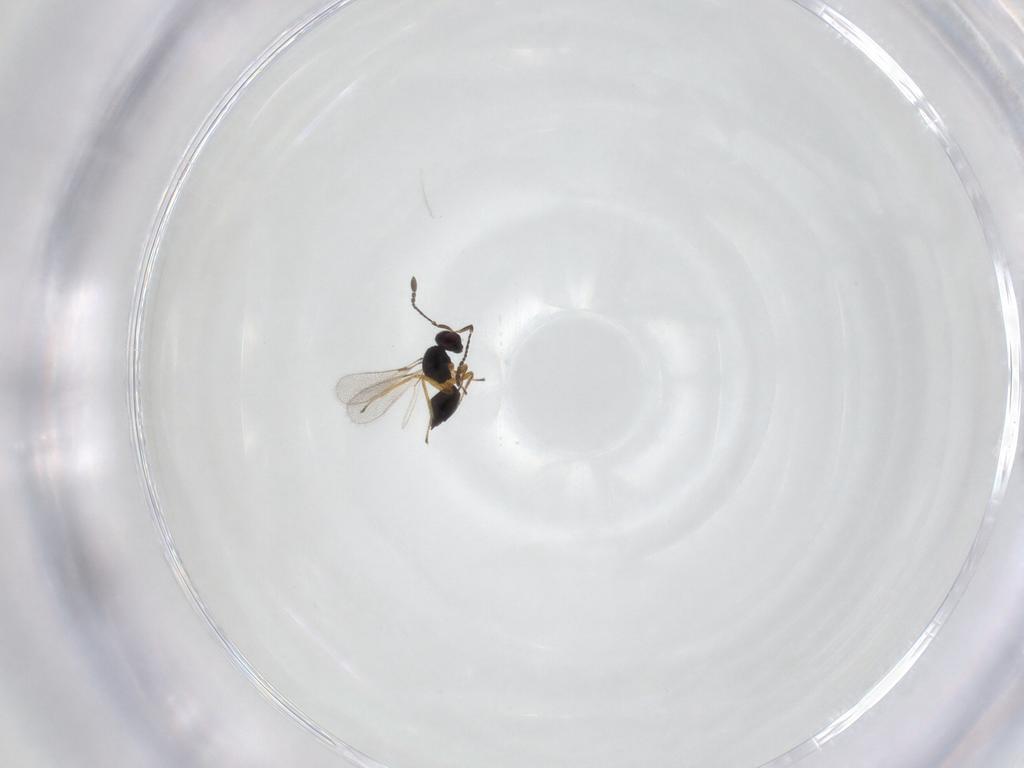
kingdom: Animalia
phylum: Arthropoda
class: Insecta
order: Hymenoptera
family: Mymaridae
